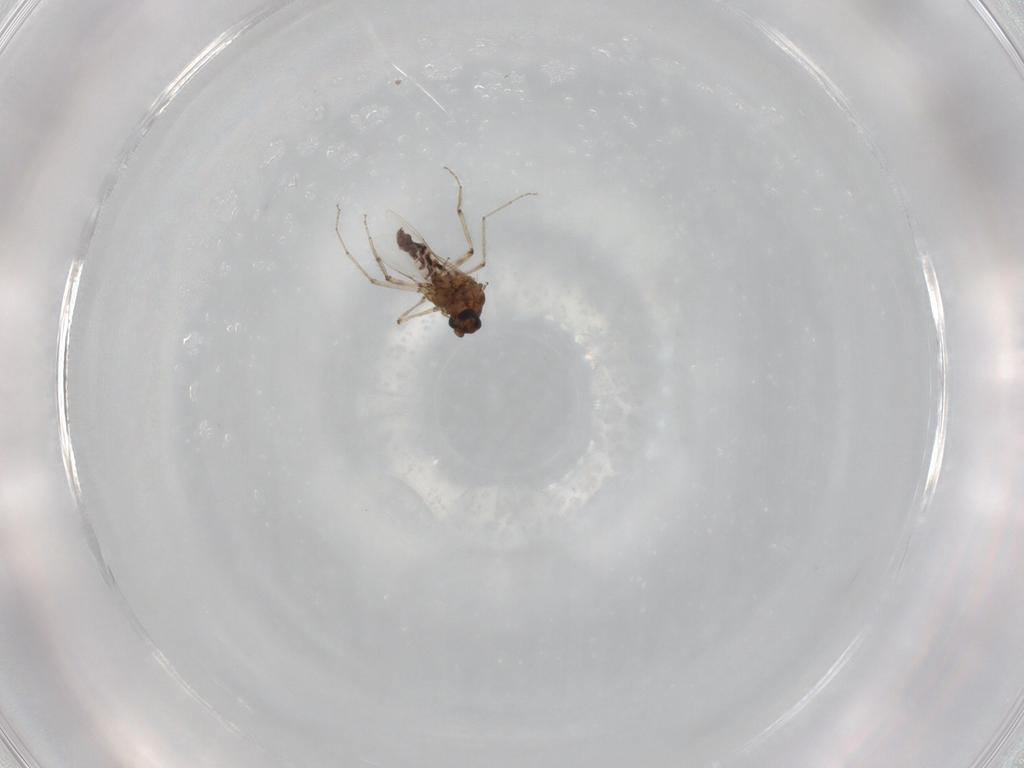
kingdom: Animalia
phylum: Arthropoda
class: Insecta
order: Diptera
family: Ceratopogonidae
